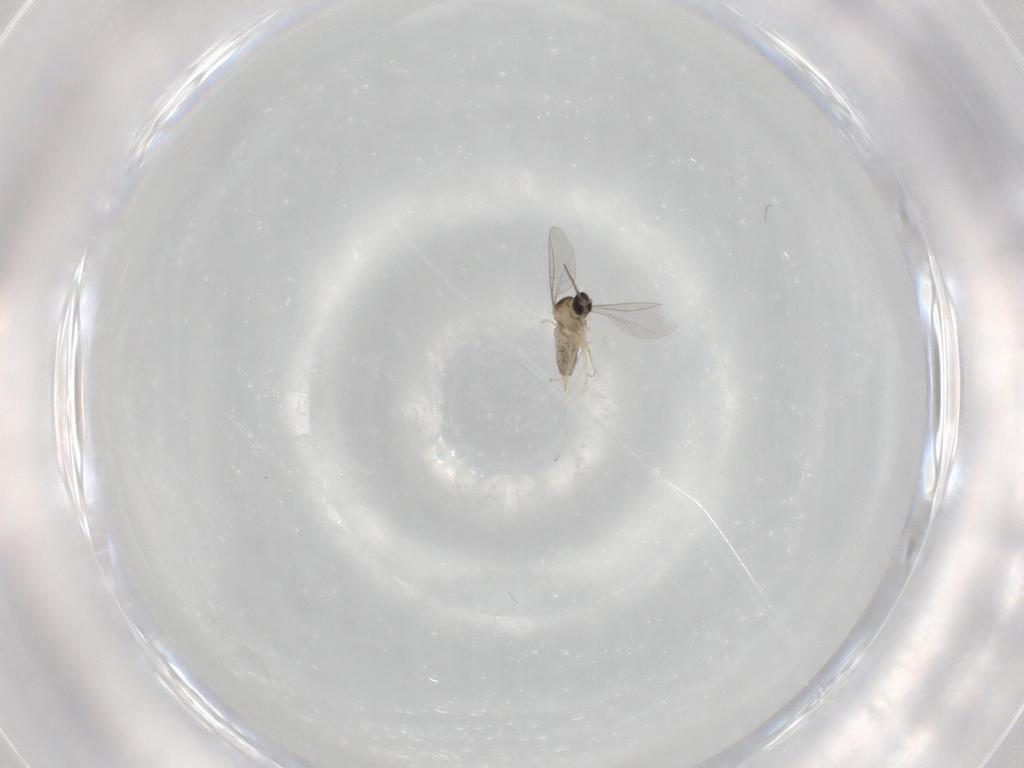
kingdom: Animalia
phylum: Arthropoda
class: Insecta
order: Diptera
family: Cecidomyiidae
